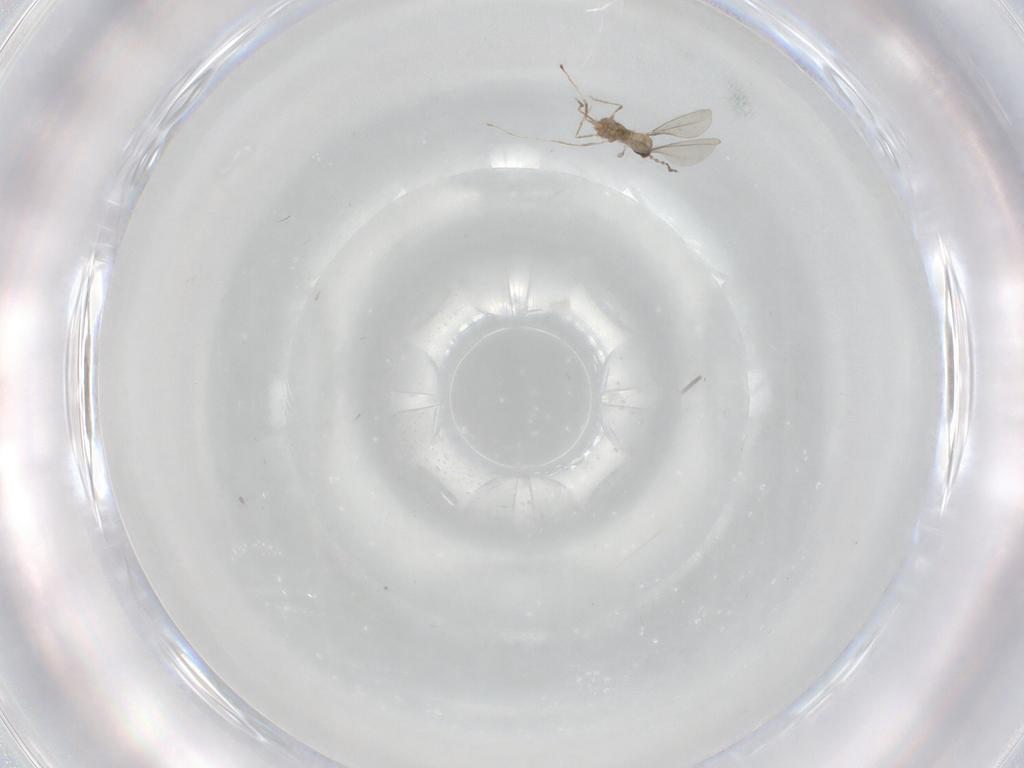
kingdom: Animalia
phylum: Arthropoda
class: Insecta
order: Diptera
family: Cecidomyiidae
